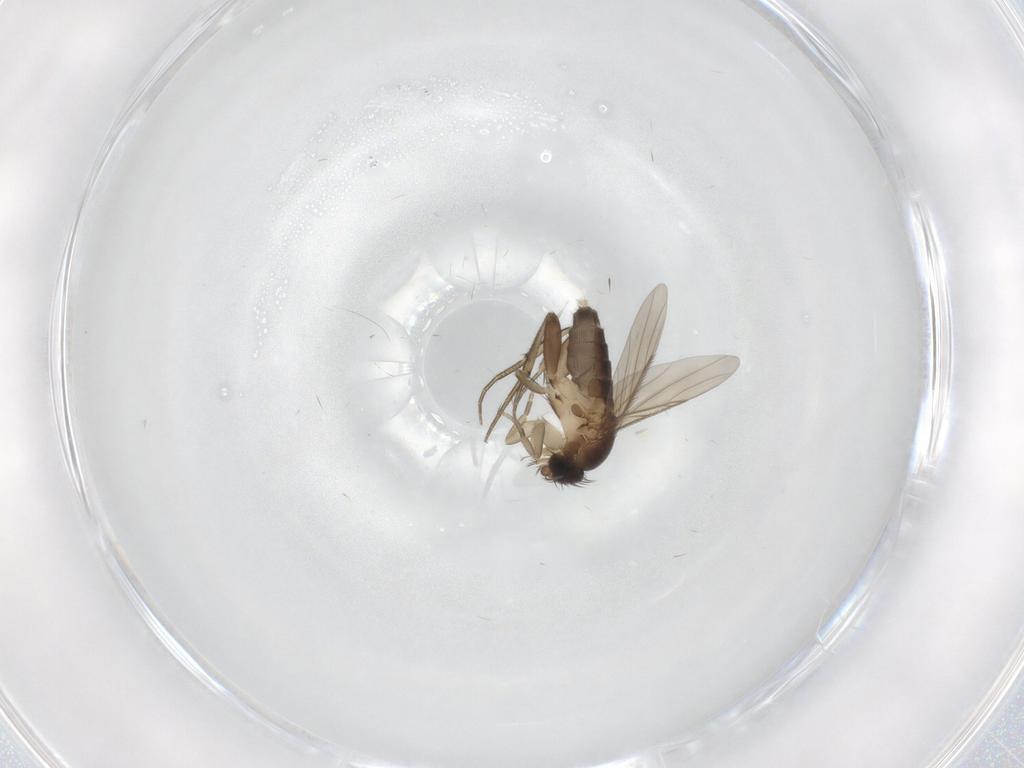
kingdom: Animalia
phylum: Arthropoda
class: Insecta
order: Diptera
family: Phoridae
